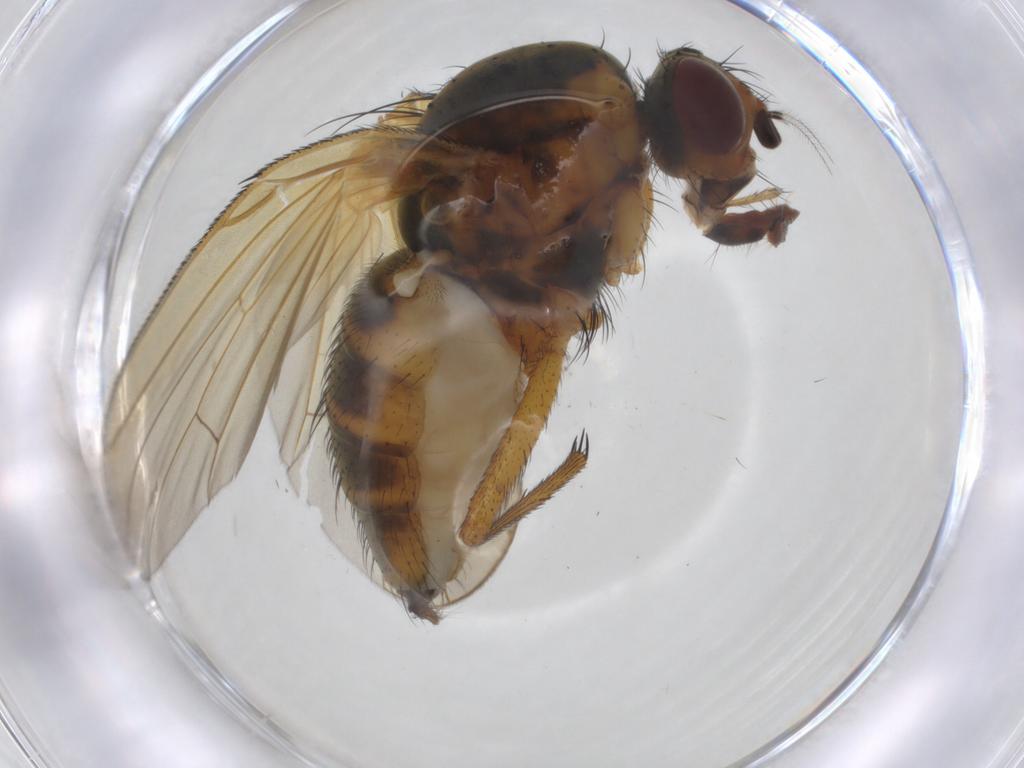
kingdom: Animalia
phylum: Arthropoda
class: Insecta
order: Diptera
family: Anthomyiidae
